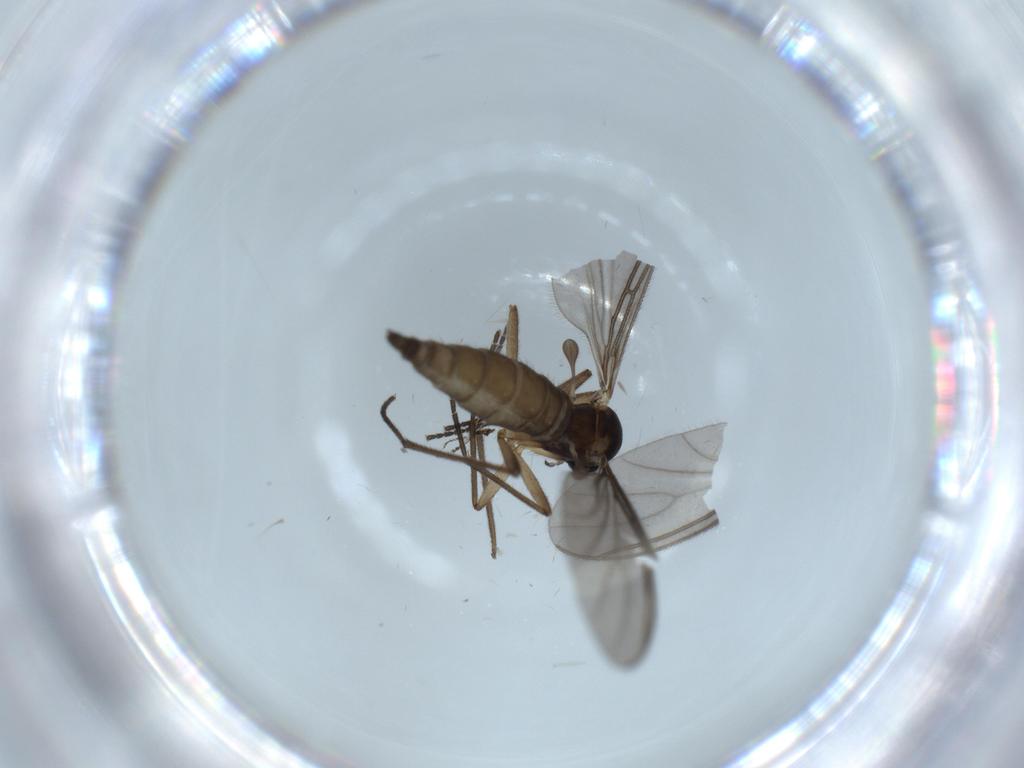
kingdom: Animalia
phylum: Arthropoda
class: Insecta
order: Diptera
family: Sciaridae
